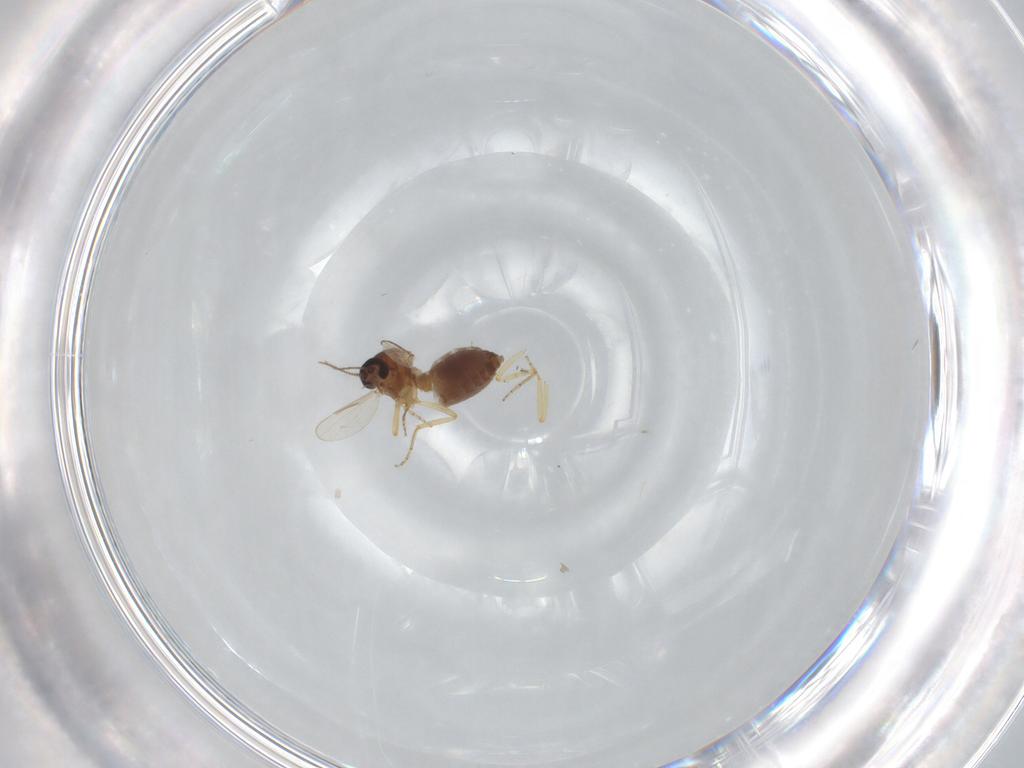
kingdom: Animalia
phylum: Arthropoda
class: Insecta
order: Diptera
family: Ceratopogonidae
